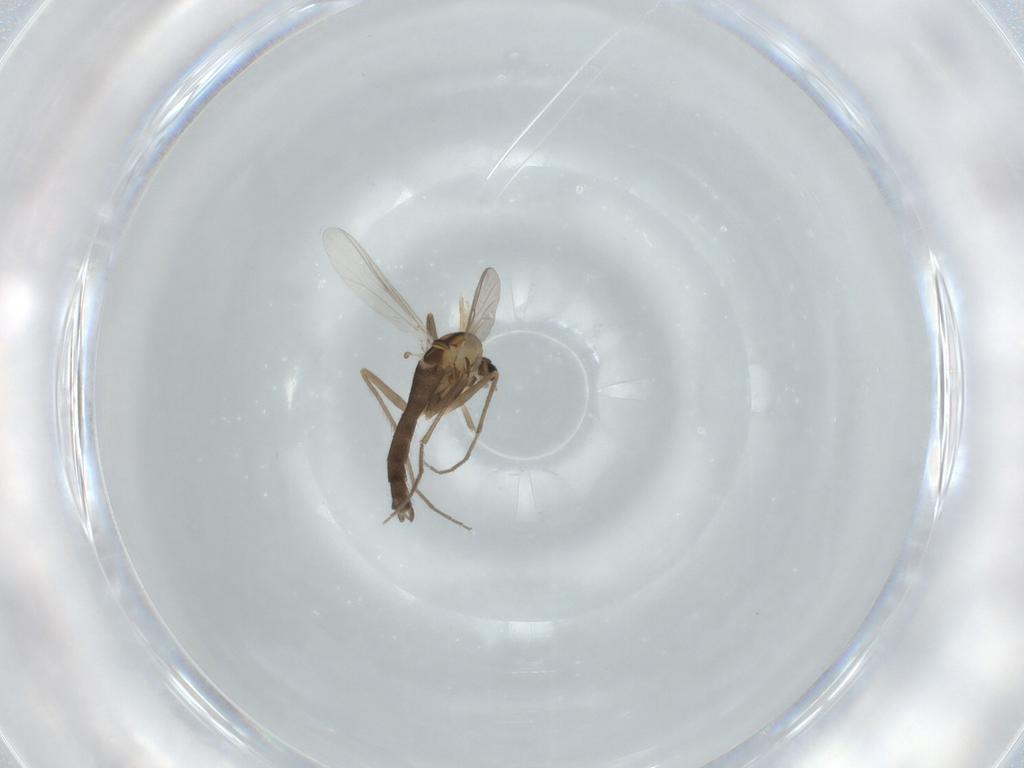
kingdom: Animalia
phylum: Arthropoda
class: Insecta
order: Diptera
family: Chironomidae
